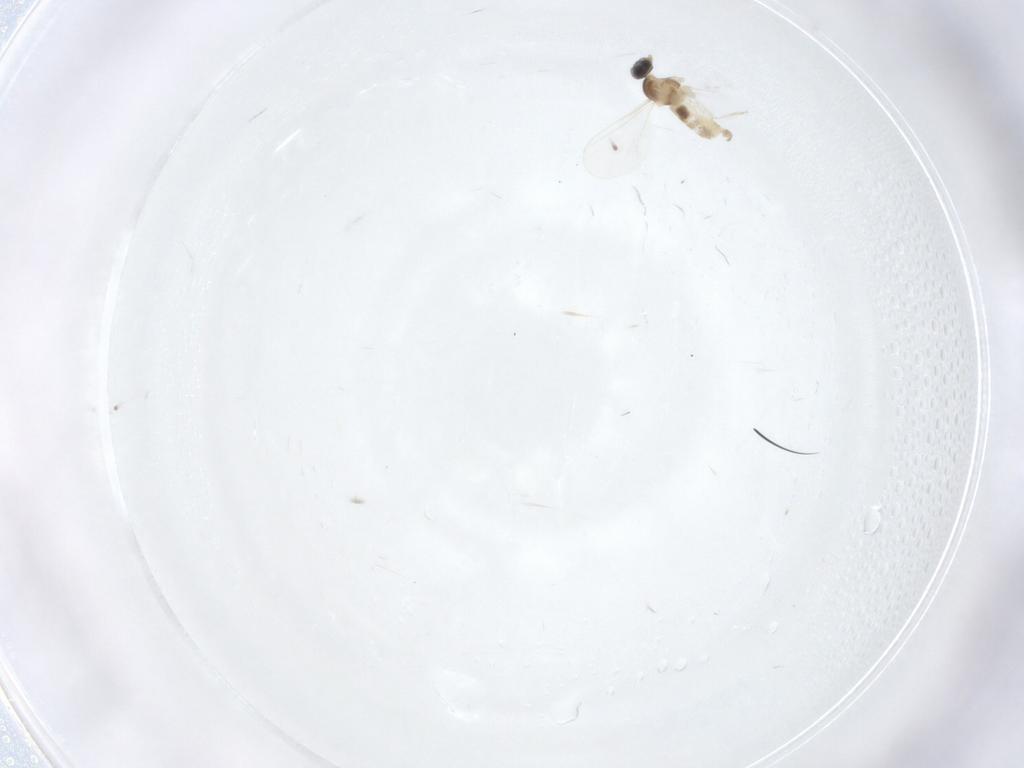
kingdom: Animalia
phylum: Arthropoda
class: Insecta
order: Diptera
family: Cecidomyiidae
